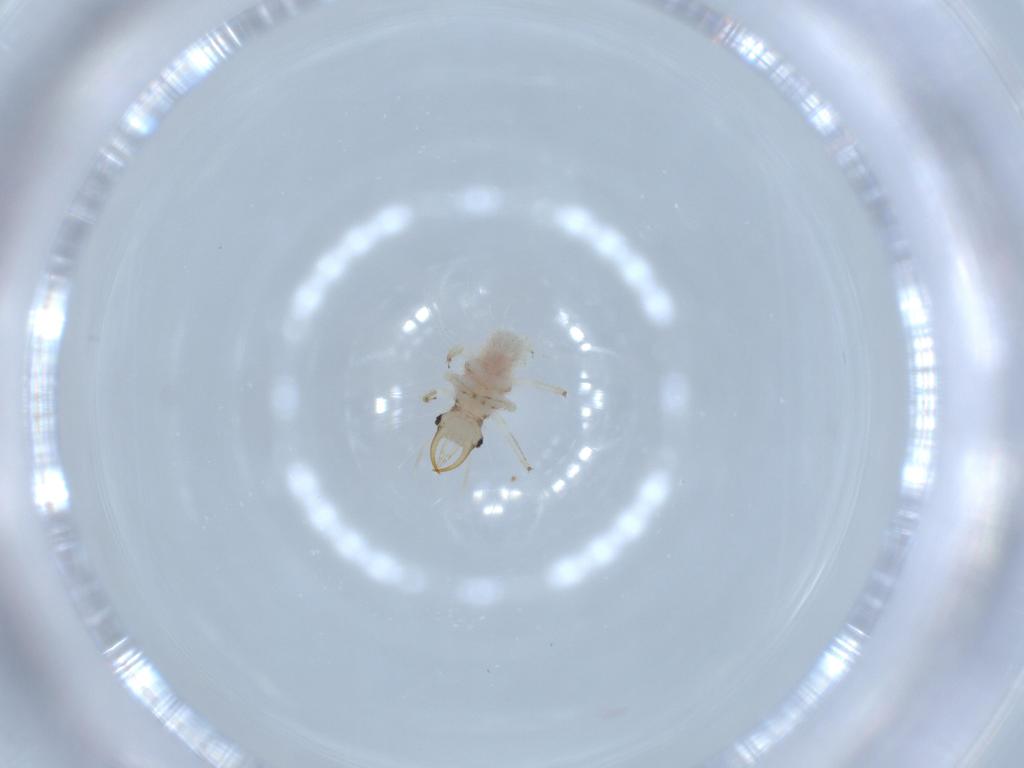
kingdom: Animalia
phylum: Arthropoda
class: Insecta
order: Neuroptera
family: Chrysopidae
